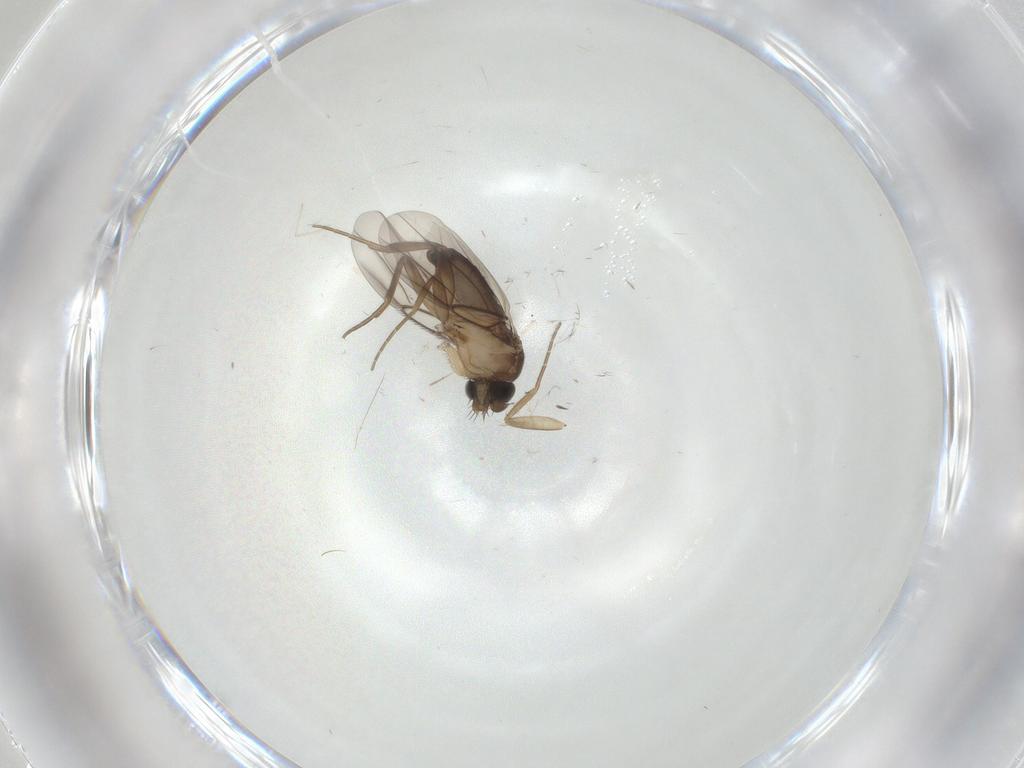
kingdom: Animalia
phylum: Arthropoda
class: Insecta
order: Diptera
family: Phoridae
